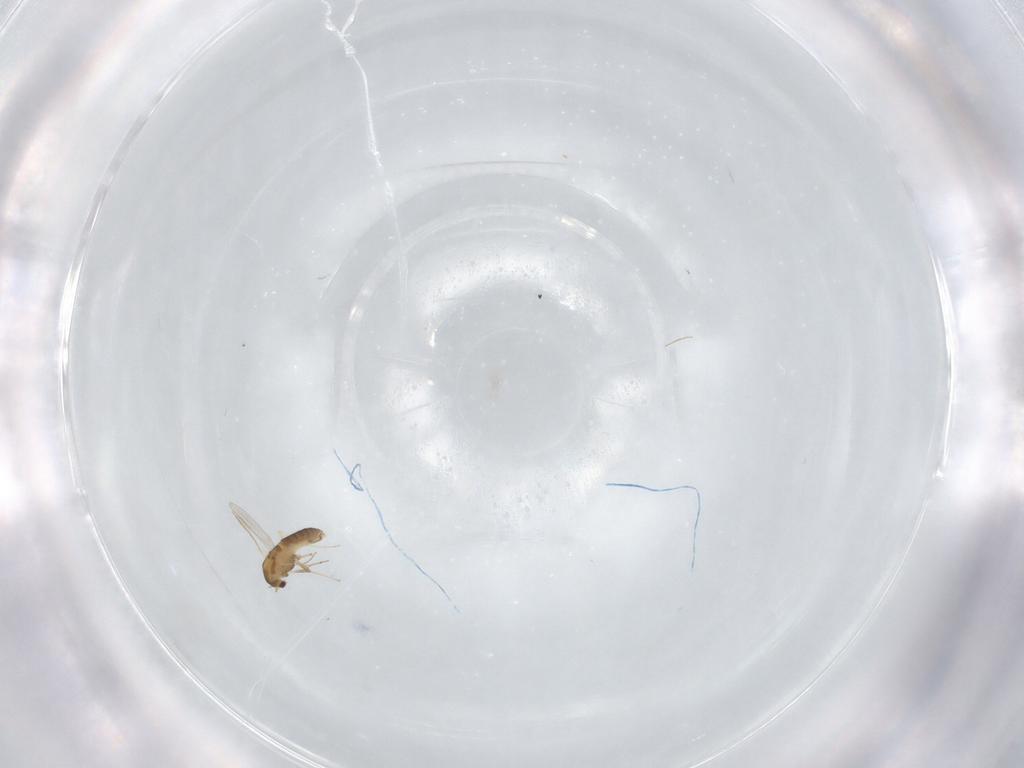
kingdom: Animalia
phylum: Arthropoda
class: Insecta
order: Diptera
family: Chironomidae
